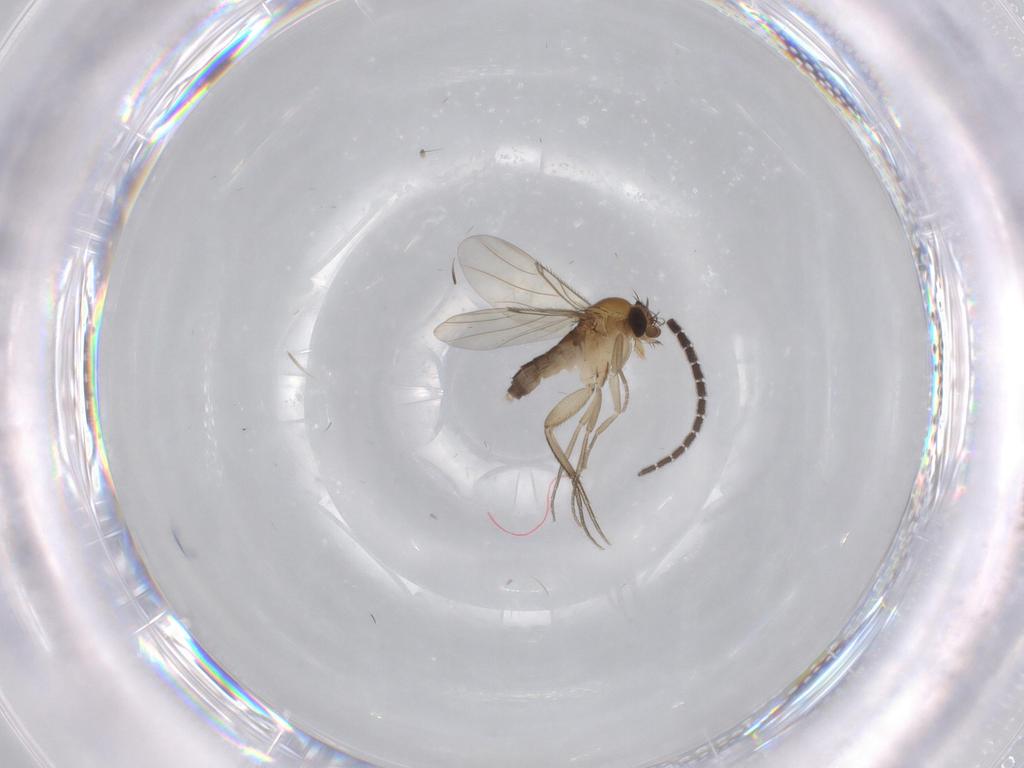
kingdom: Animalia
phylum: Arthropoda
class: Insecta
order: Diptera
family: Phoridae
